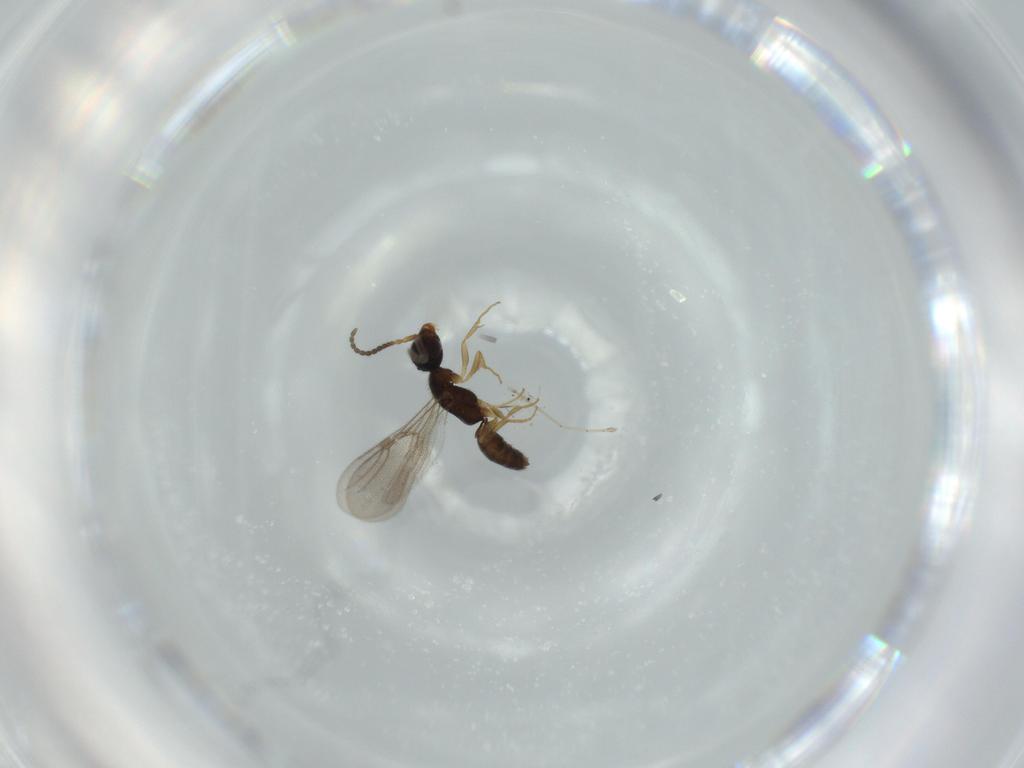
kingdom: Animalia
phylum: Arthropoda
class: Insecta
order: Hymenoptera
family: Bethylidae
